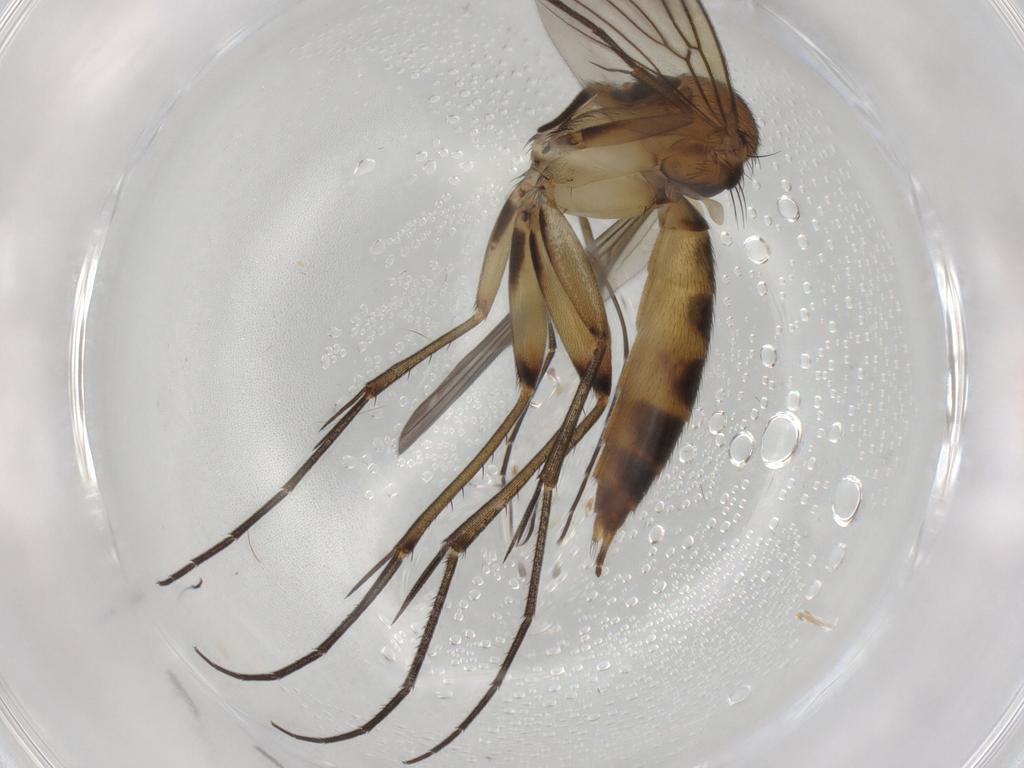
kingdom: Animalia
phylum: Arthropoda
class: Insecta
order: Diptera
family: Mycetophilidae
